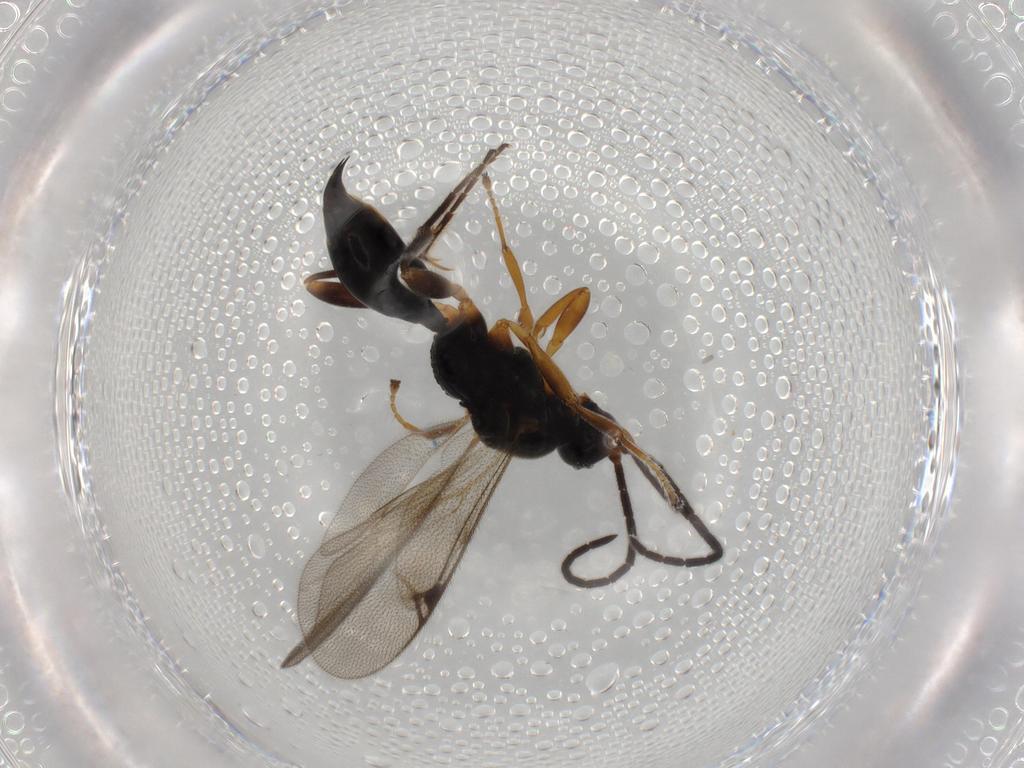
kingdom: Animalia
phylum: Arthropoda
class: Insecta
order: Hymenoptera
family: Proctotrupidae
